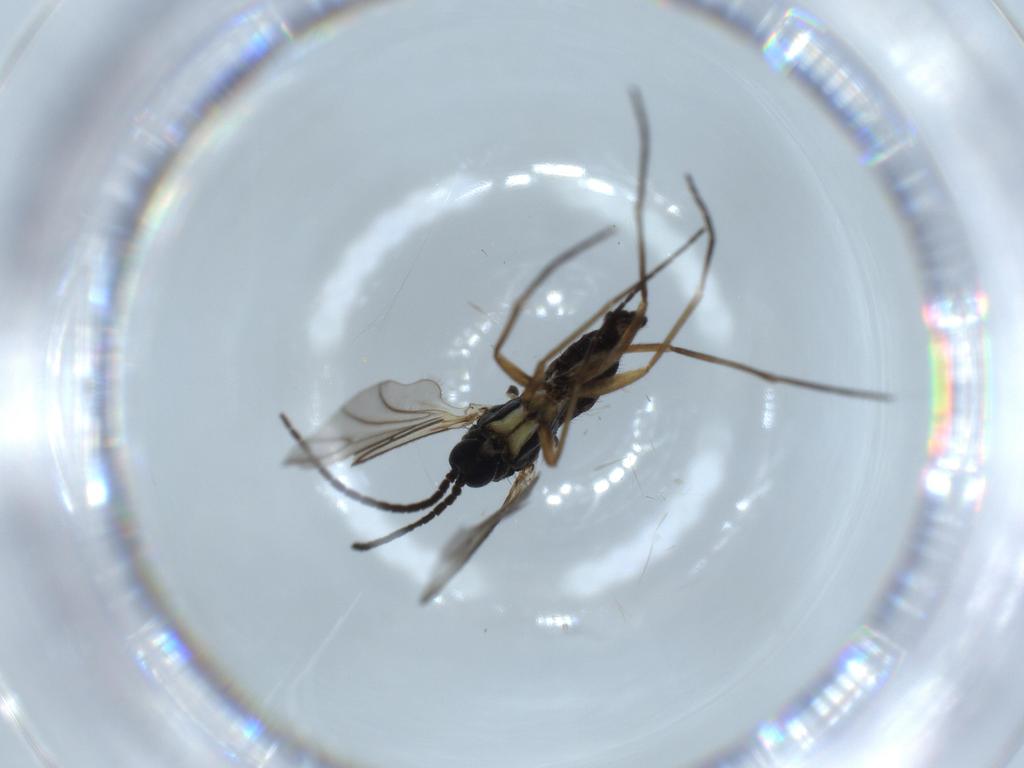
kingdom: Animalia
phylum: Arthropoda
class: Insecta
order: Diptera
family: Sciaridae
